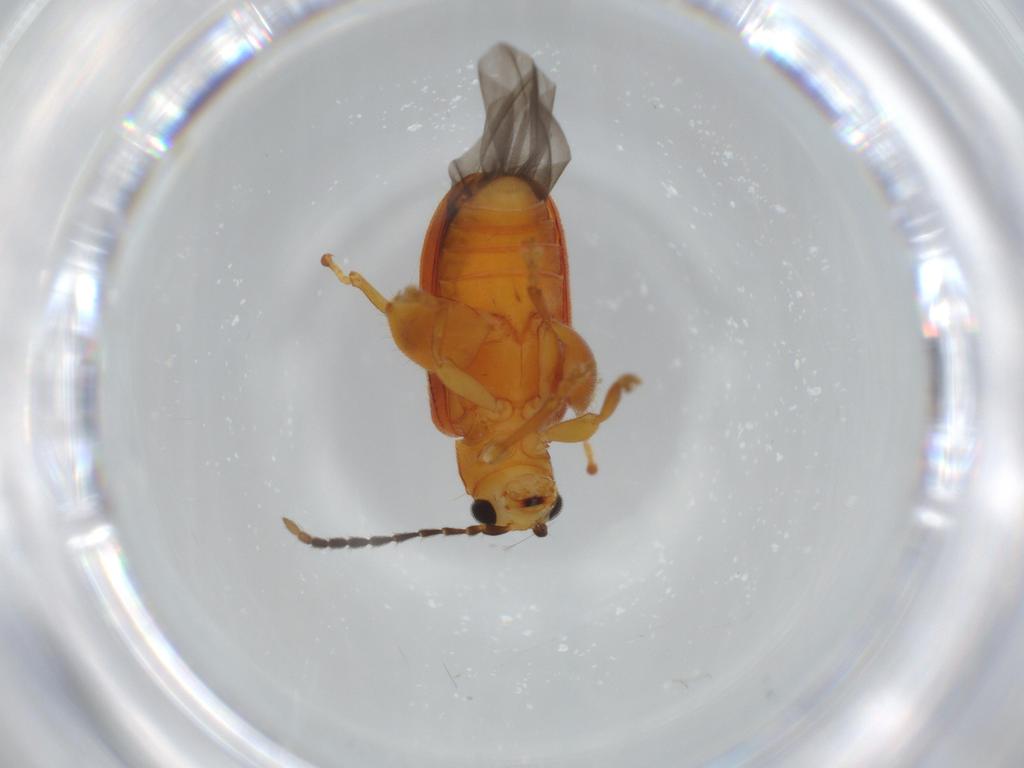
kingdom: Animalia
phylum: Arthropoda
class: Insecta
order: Coleoptera
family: Chrysomelidae
